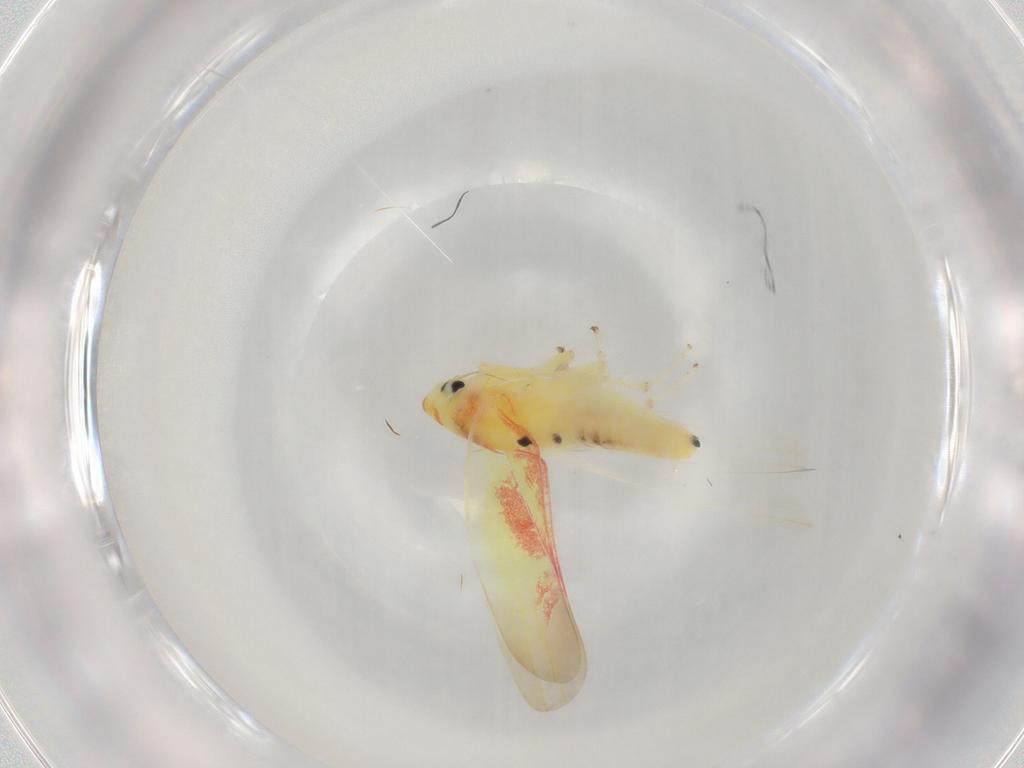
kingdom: Animalia
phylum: Arthropoda
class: Insecta
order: Hemiptera
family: Cicadellidae
